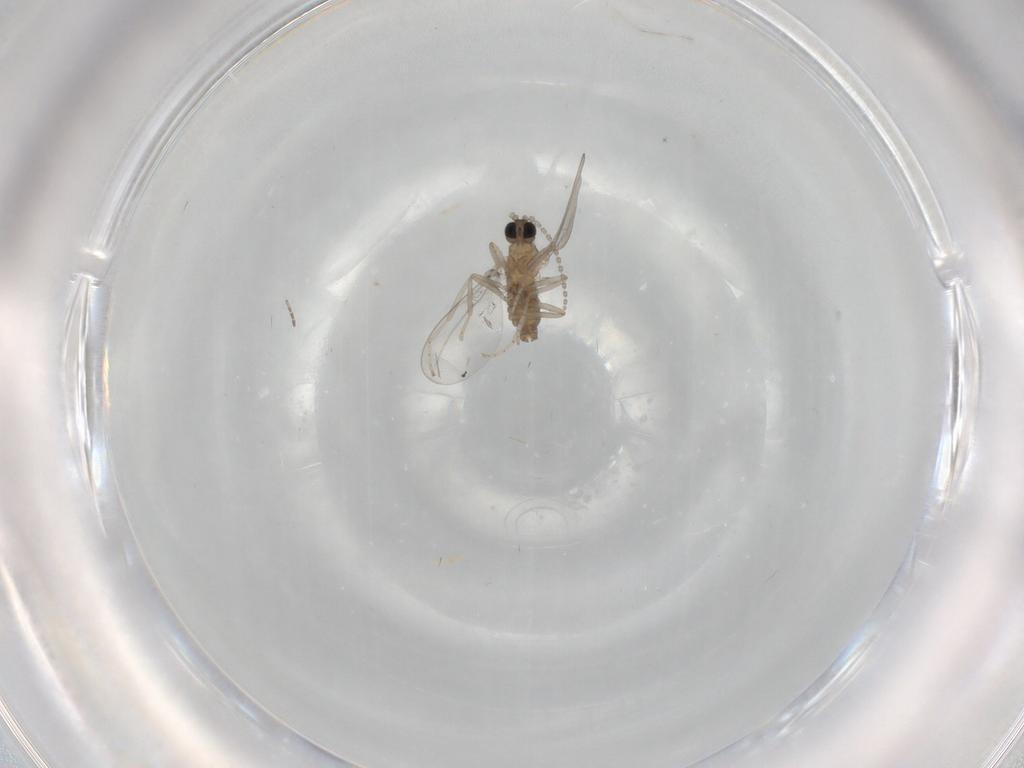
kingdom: Animalia
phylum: Arthropoda
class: Insecta
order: Diptera
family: Cecidomyiidae
